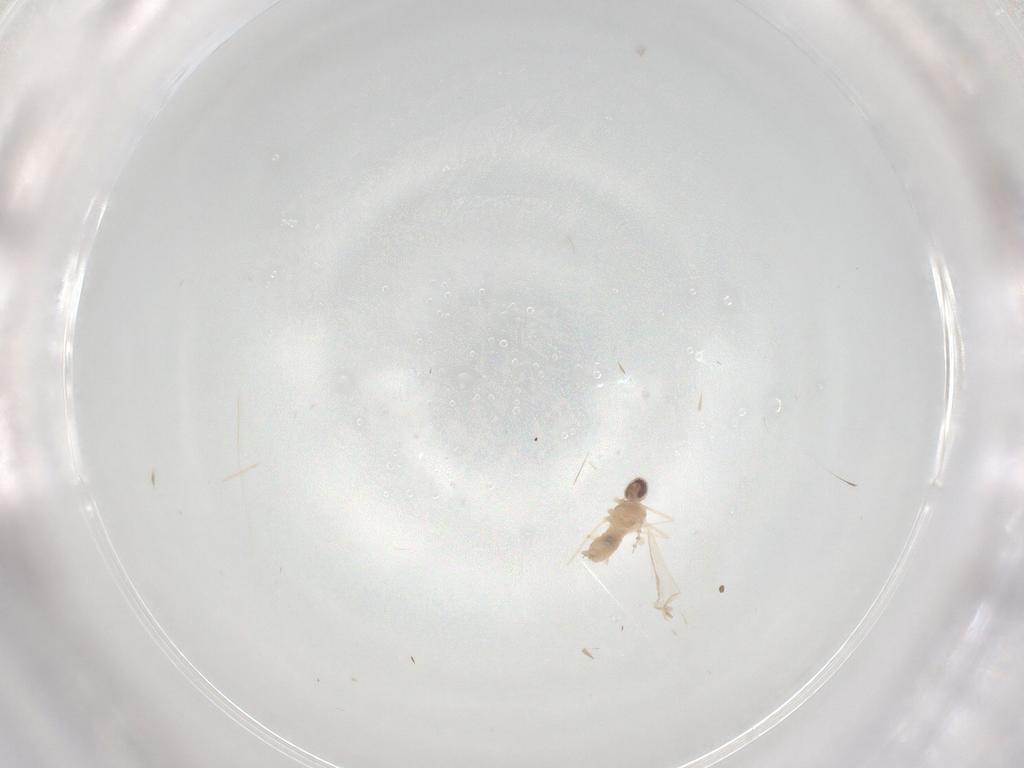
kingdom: Animalia
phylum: Arthropoda
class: Insecta
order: Diptera
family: Cecidomyiidae
